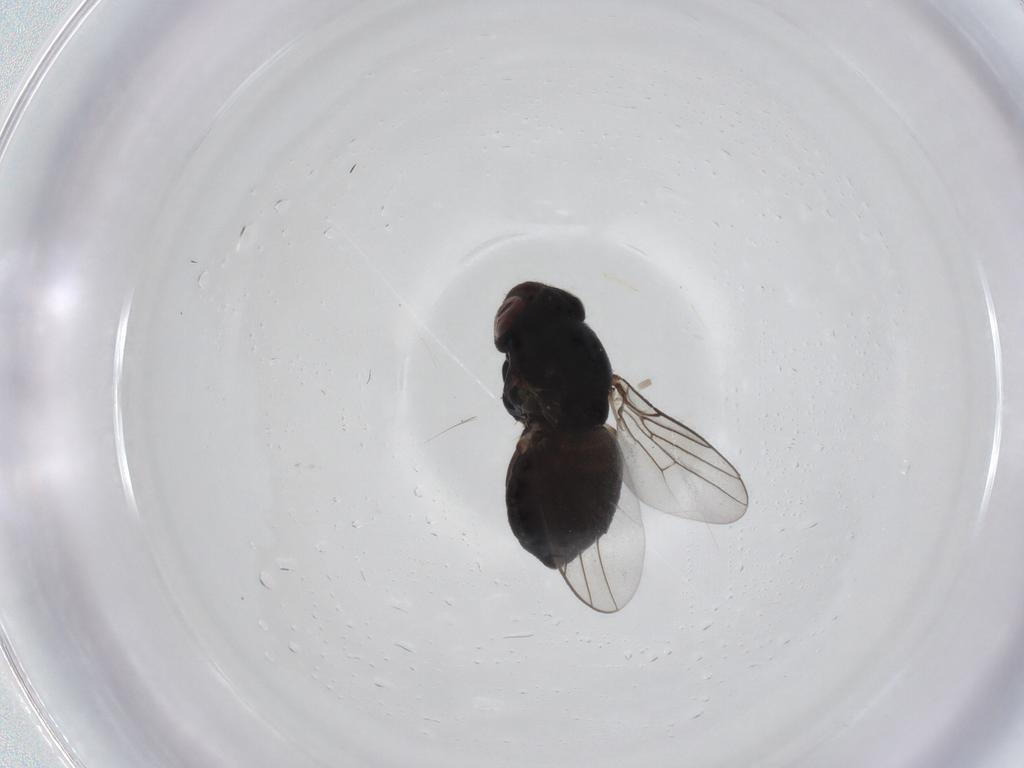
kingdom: Animalia
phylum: Arthropoda
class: Insecta
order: Diptera
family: Chloropidae
